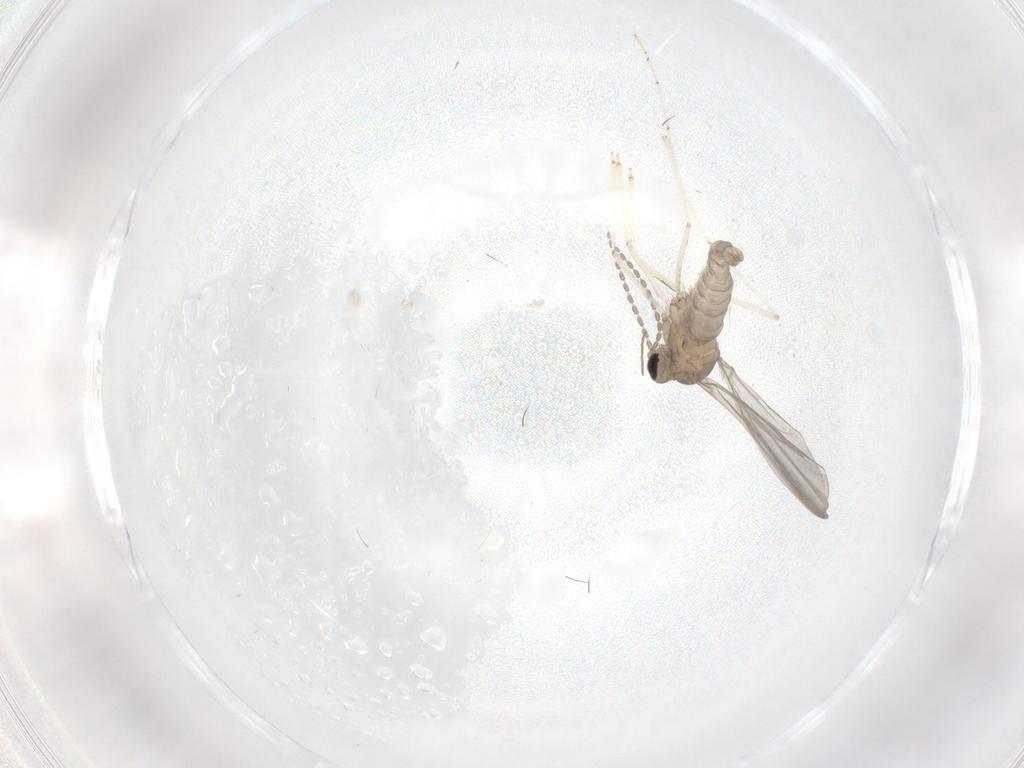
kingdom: Animalia
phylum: Arthropoda
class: Insecta
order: Diptera
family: Cecidomyiidae
